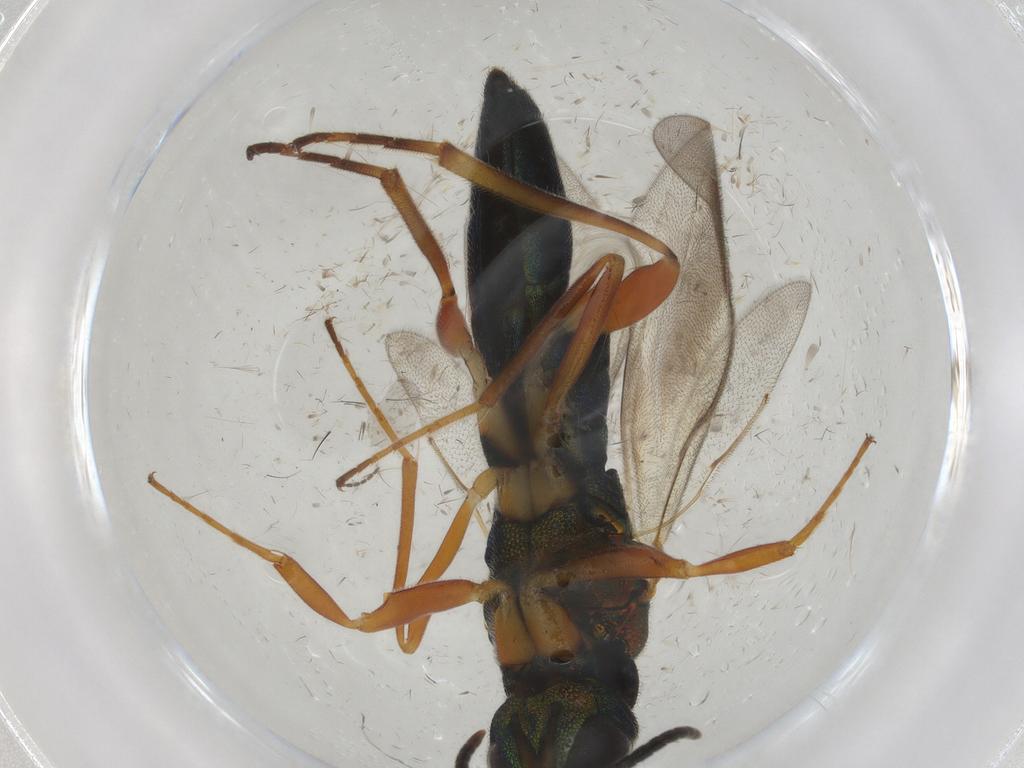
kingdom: Animalia
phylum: Arthropoda
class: Insecta
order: Hymenoptera
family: Lyciscidae
